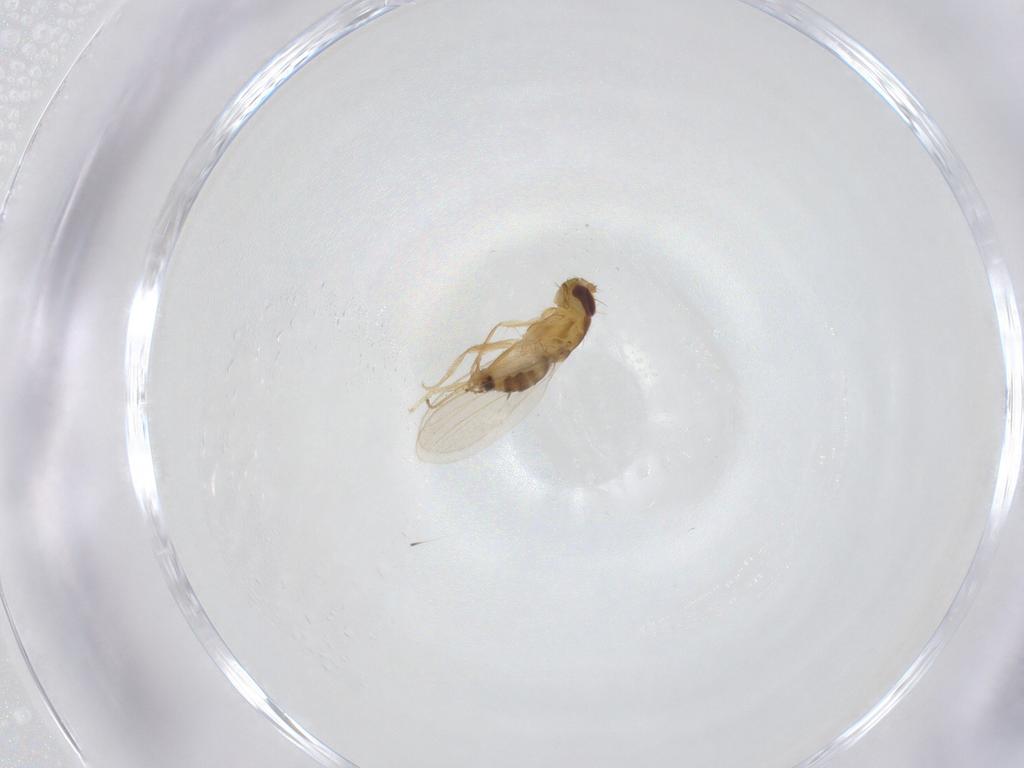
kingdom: Animalia
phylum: Arthropoda
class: Insecta
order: Diptera
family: Periscelididae
